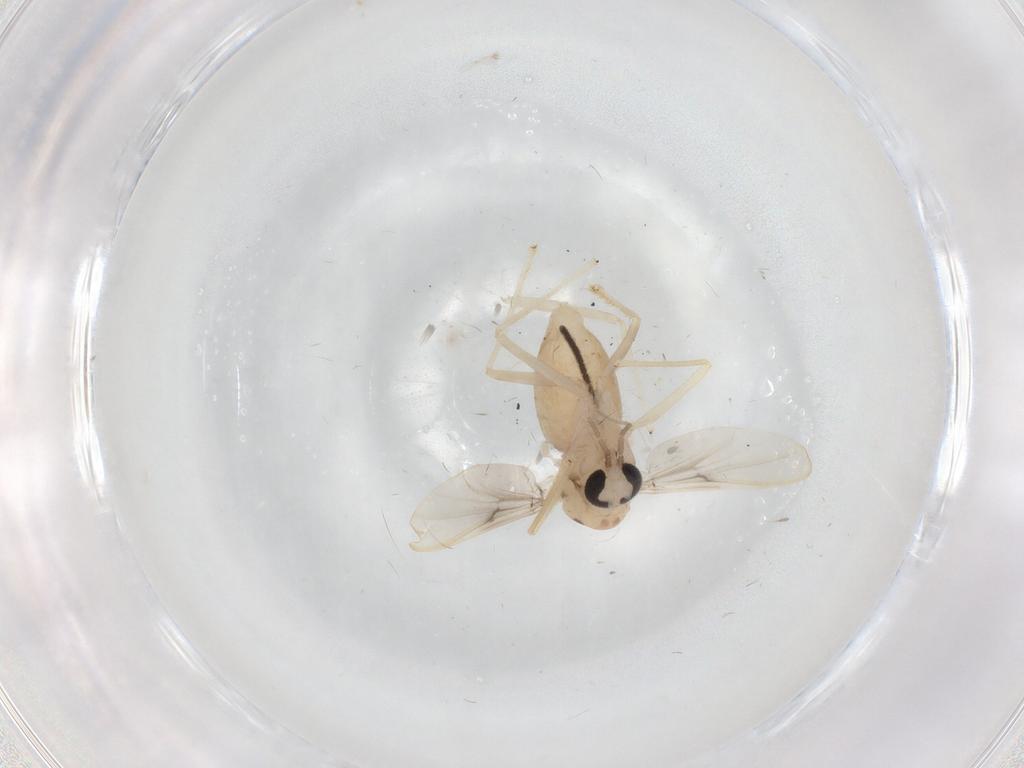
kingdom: Animalia
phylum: Arthropoda
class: Insecta
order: Diptera
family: Chironomidae
